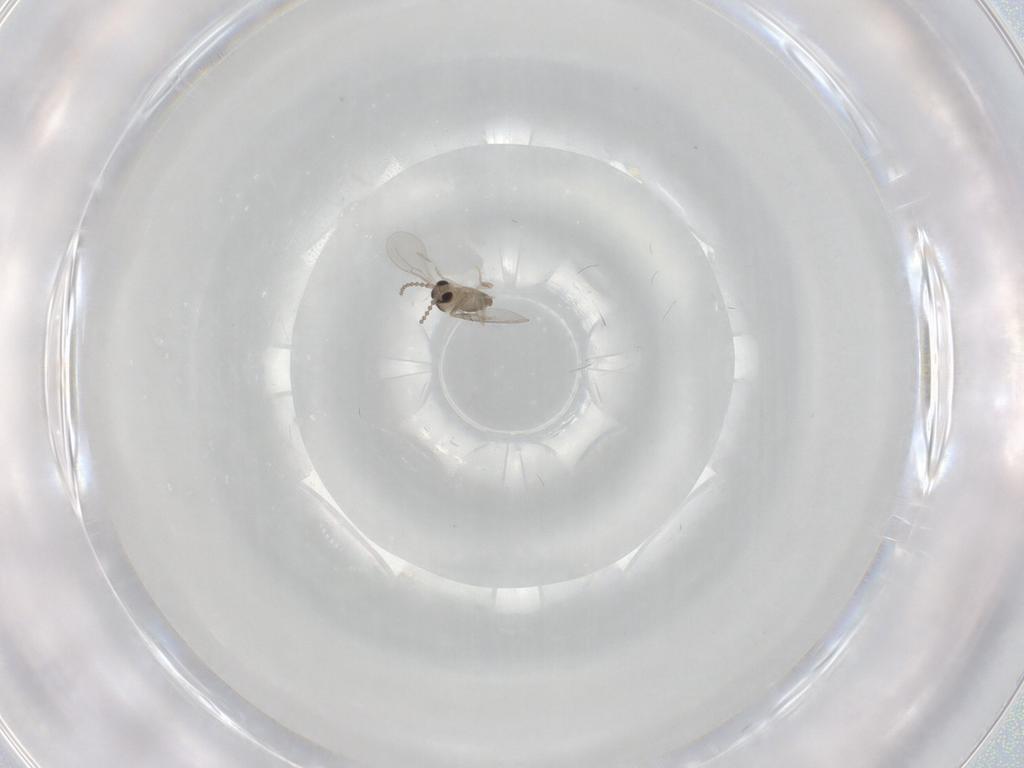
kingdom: Animalia
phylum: Arthropoda
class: Insecta
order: Diptera
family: Cecidomyiidae
